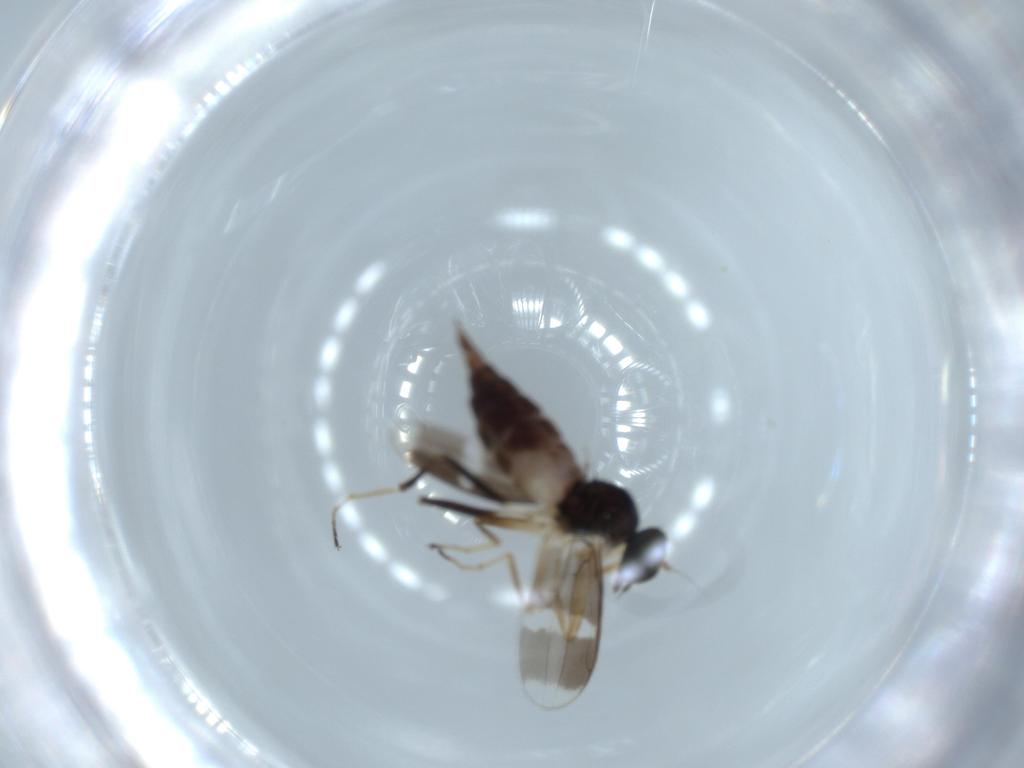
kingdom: Animalia
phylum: Arthropoda
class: Insecta
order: Diptera
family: Hybotidae
